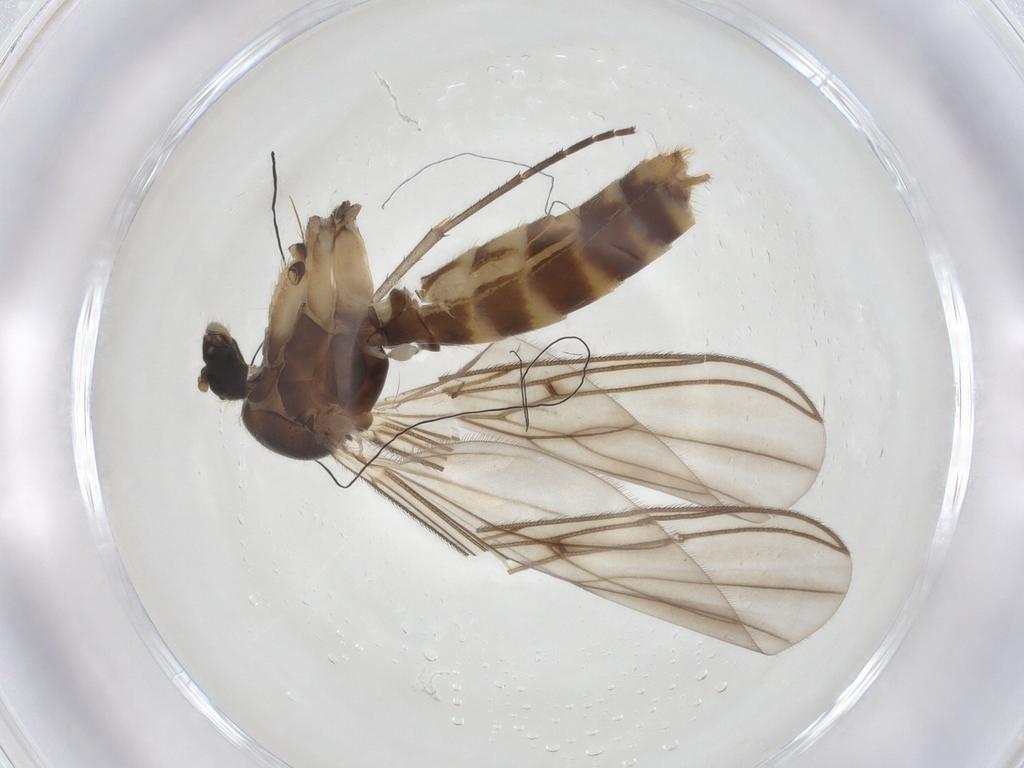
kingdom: Animalia
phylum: Arthropoda
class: Insecta
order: Diptera
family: Mycetophilidae
